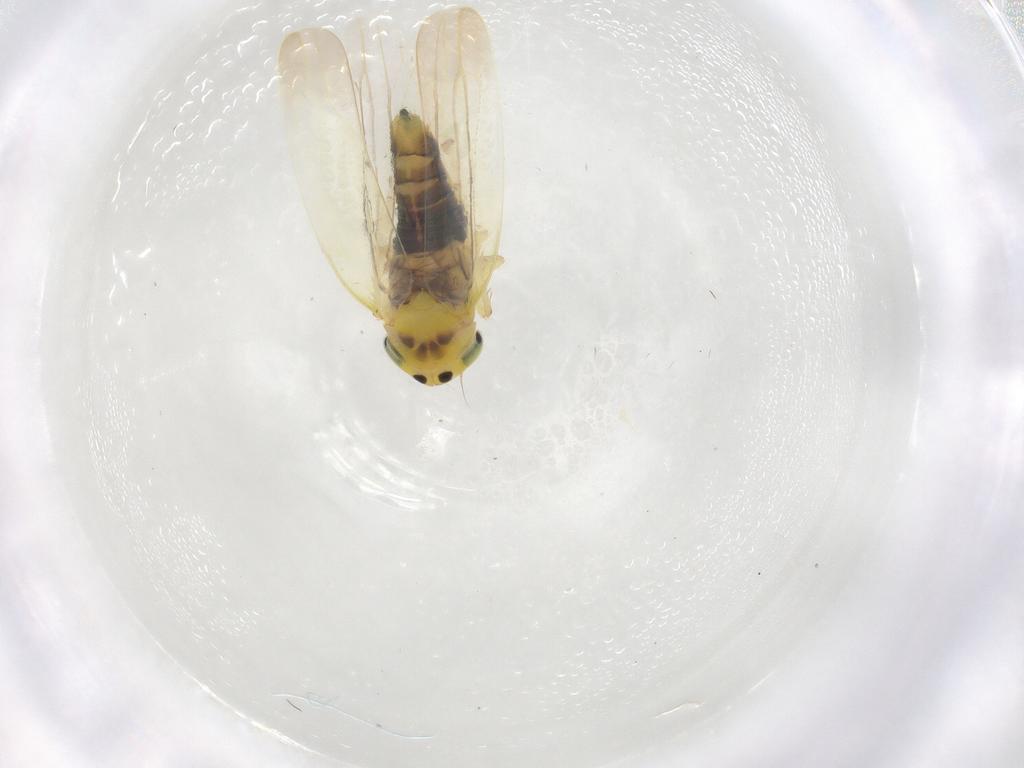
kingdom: Animalia
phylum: Arthropoda
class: Insecta
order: Hemiptera
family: Cicadellidae
